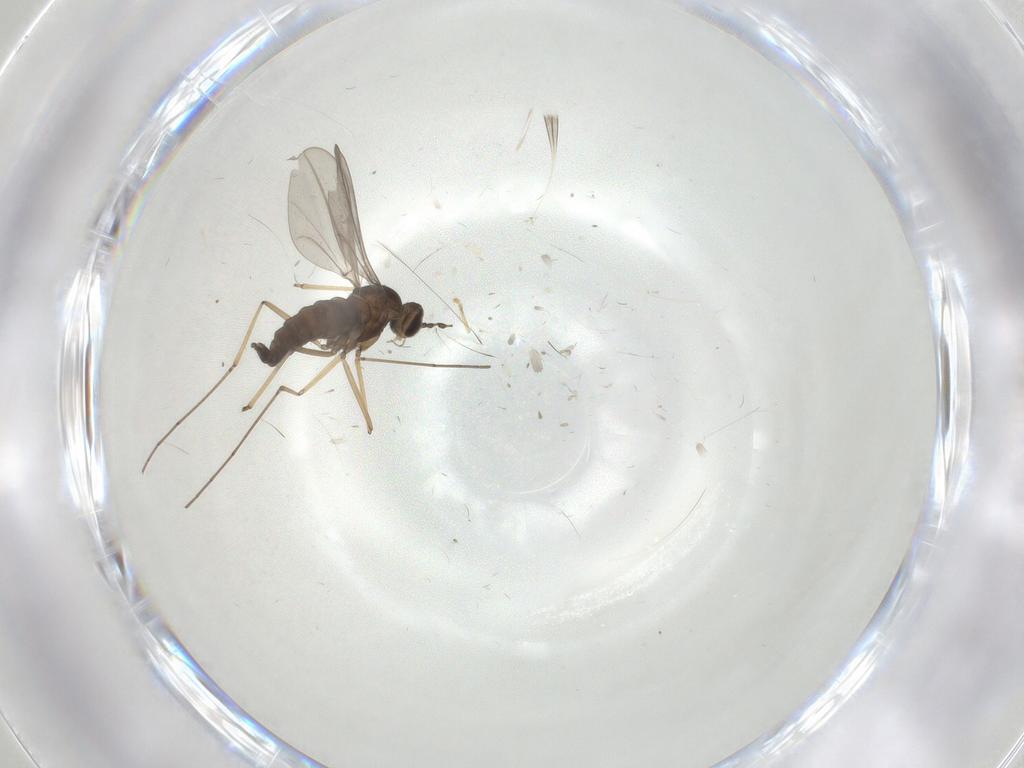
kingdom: Animalia
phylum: Arthropoda
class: Insecta
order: Diptera
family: Cecidomyiidae
